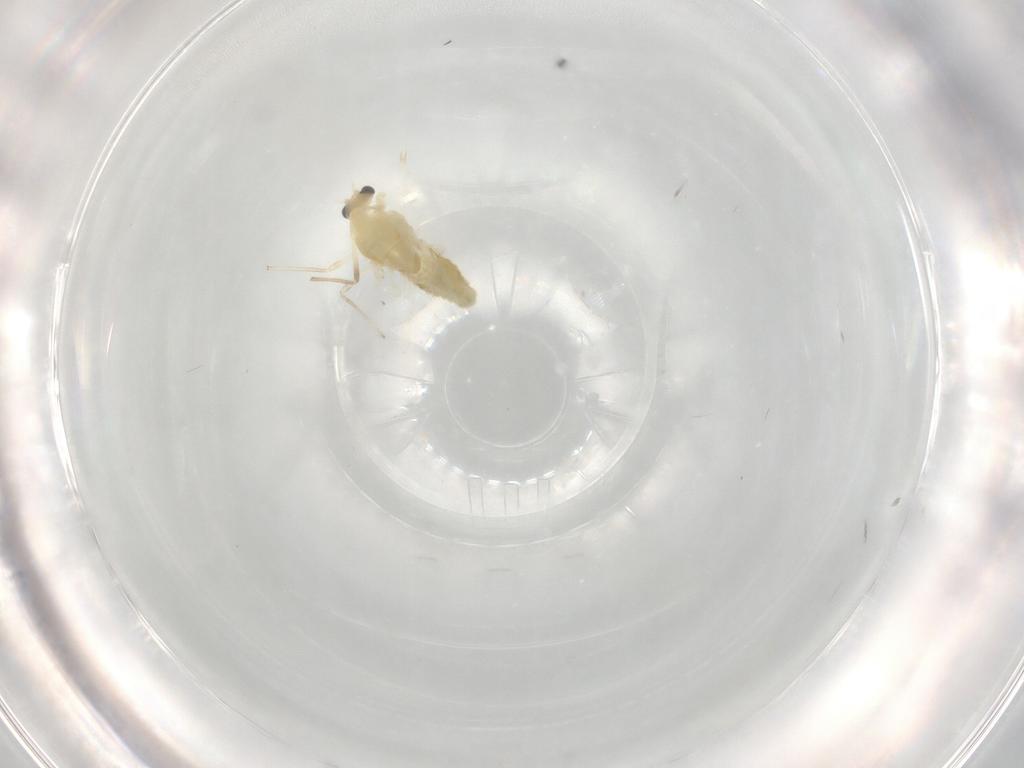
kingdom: Animalia
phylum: Arthropoda
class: Insecta
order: Diptera
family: Chironomidae
